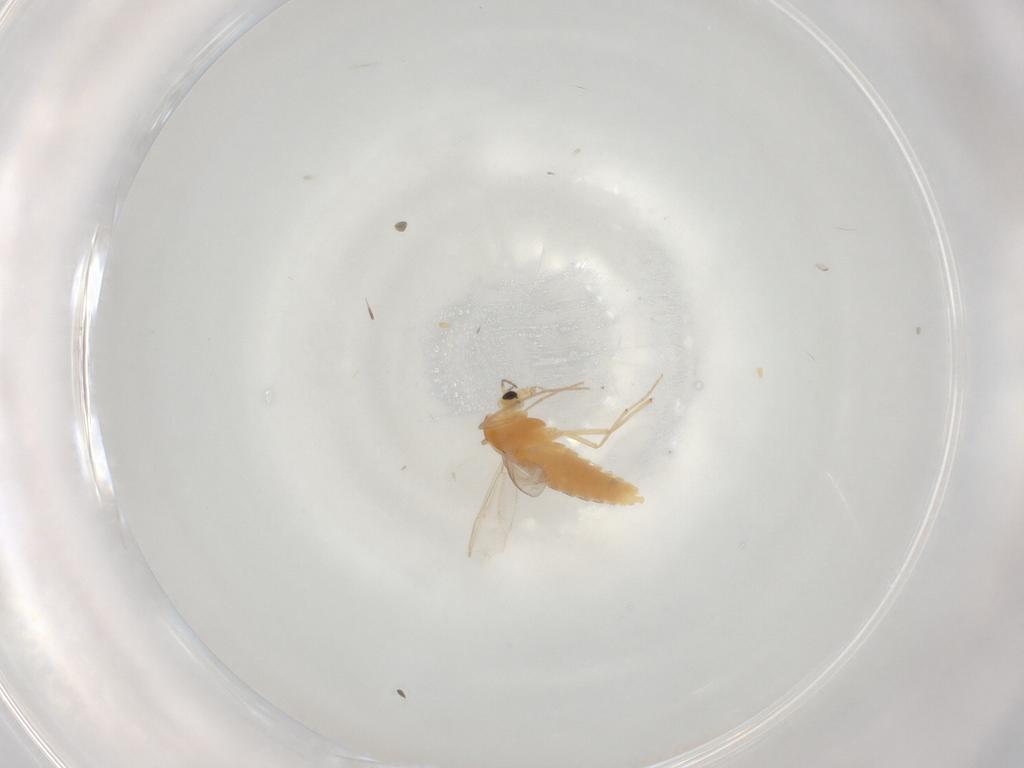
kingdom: Animalia
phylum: Arthropoda
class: Insecta
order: Diptera
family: Chironomidae
